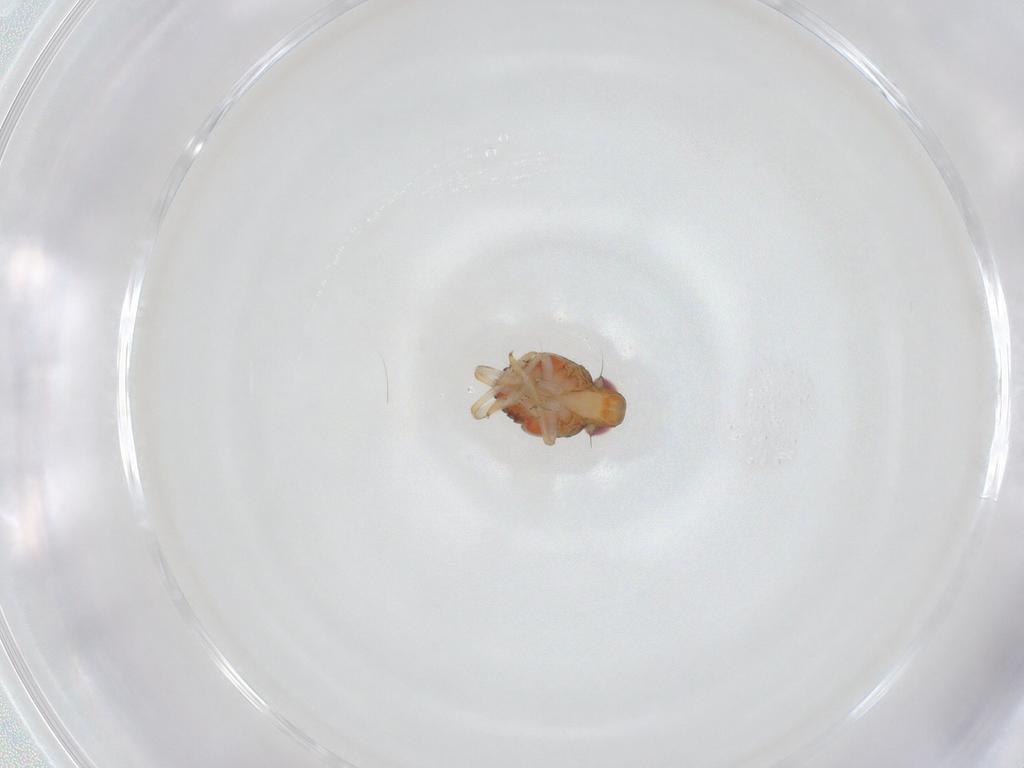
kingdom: Animalia
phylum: Arthropoda
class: Insecta
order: Hemiptera
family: Issidae
